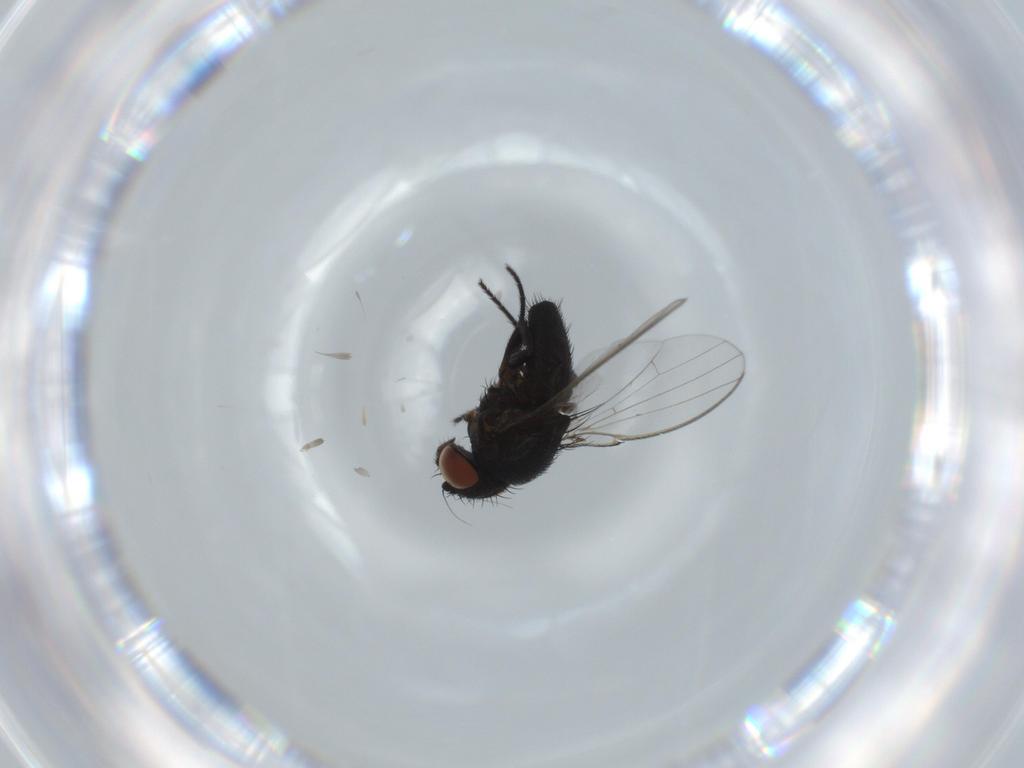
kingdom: Animalia
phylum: Arthropoda
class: Insecta
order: Diptera
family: Milichiidae
